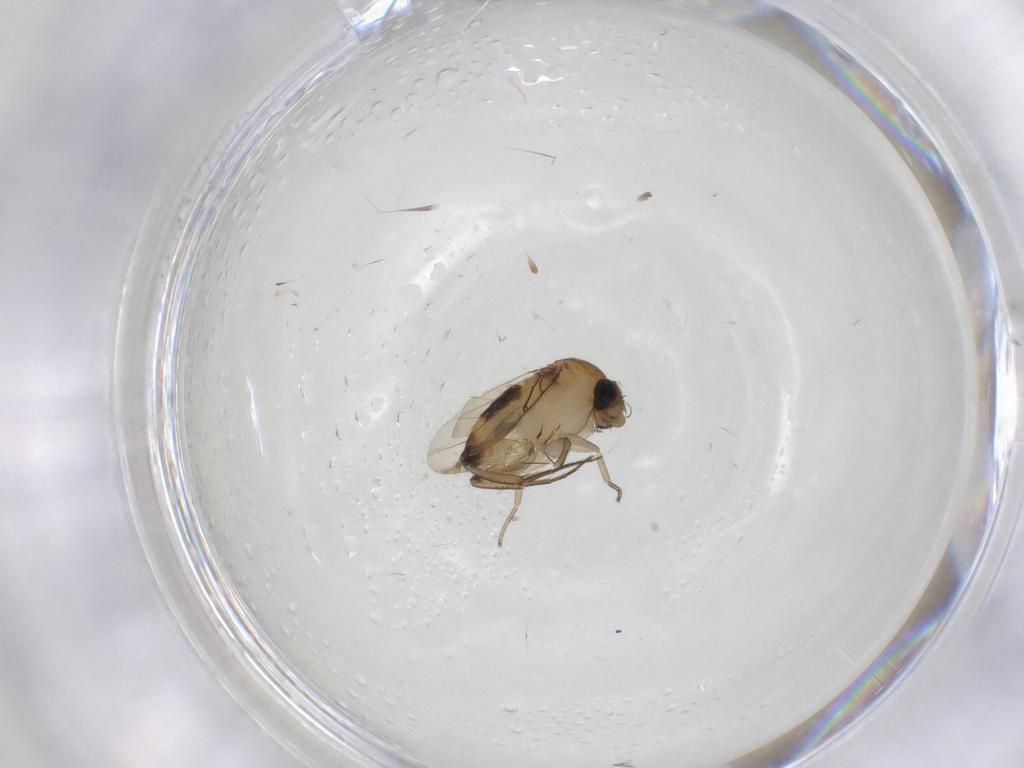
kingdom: Animalia
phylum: Arthropoda
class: Insecta
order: Diptera
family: Phoridae
